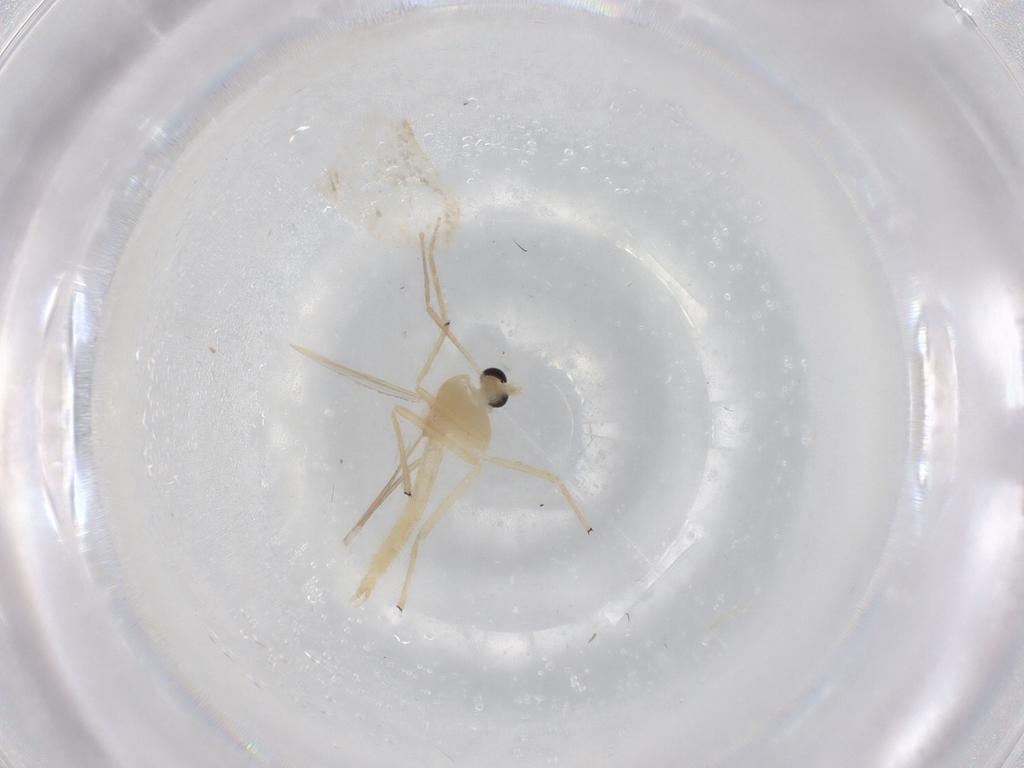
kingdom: Animalia
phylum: Arthropoda
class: Insecta
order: Diptera
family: Chironomidae
